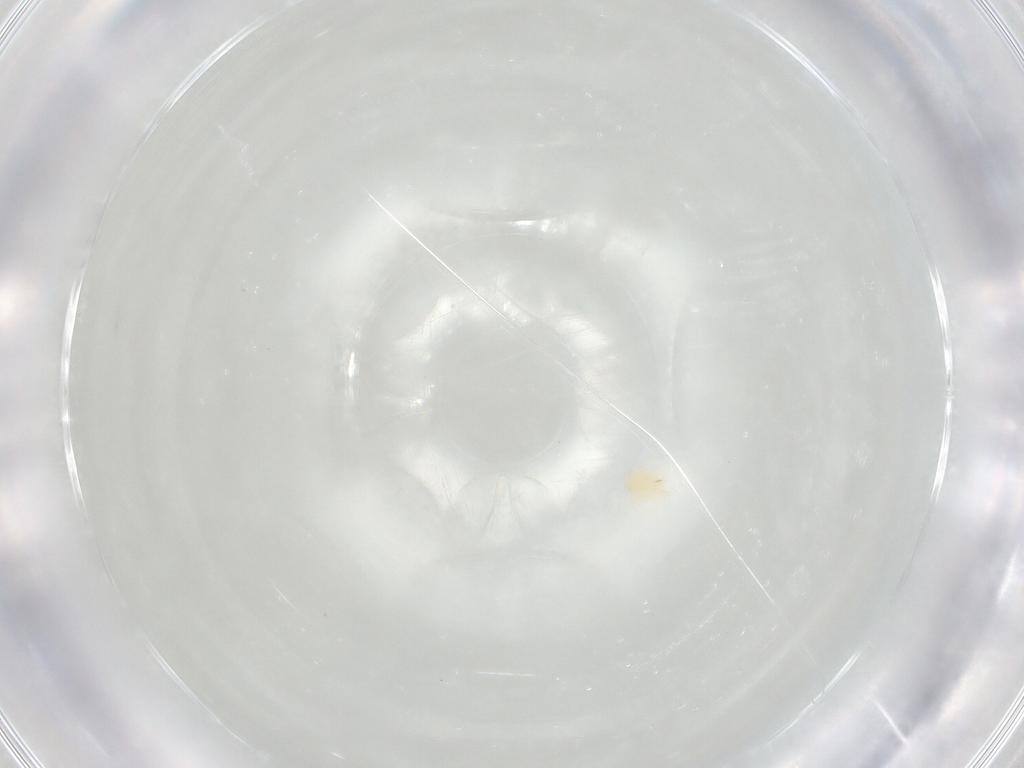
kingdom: Animalia
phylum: Arthropoda
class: Arachnida
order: Trombidiformes
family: Anystidae
